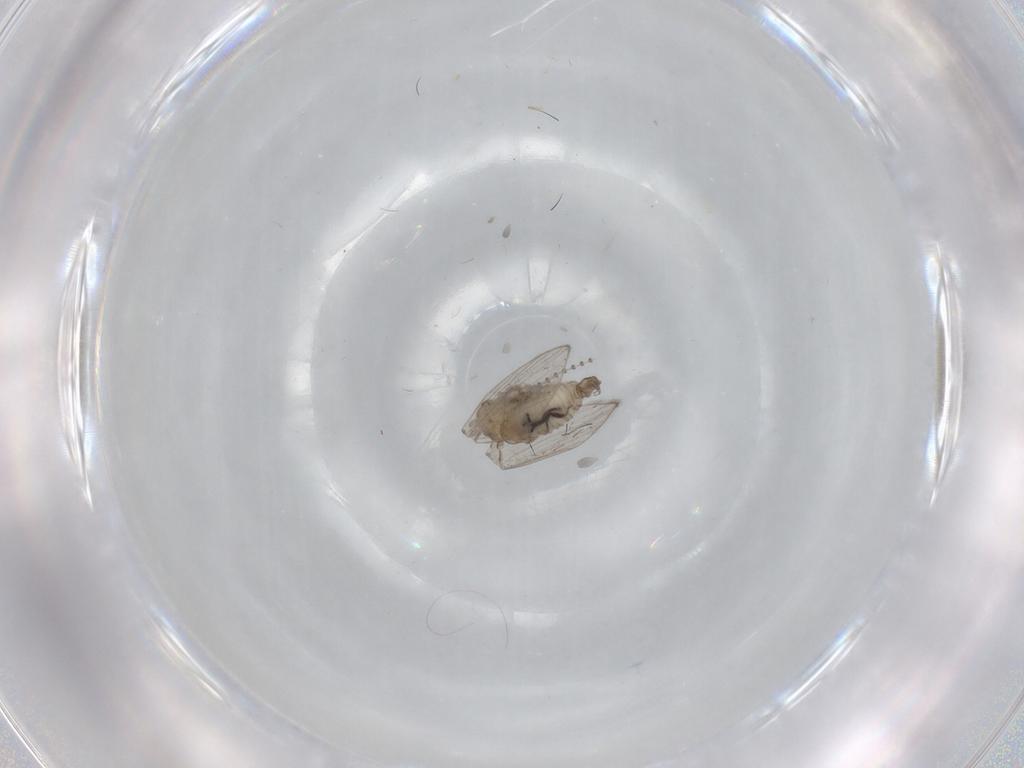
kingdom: Animalia
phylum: Arthropoda
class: Insecta
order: Diptera
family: Psychodidae
